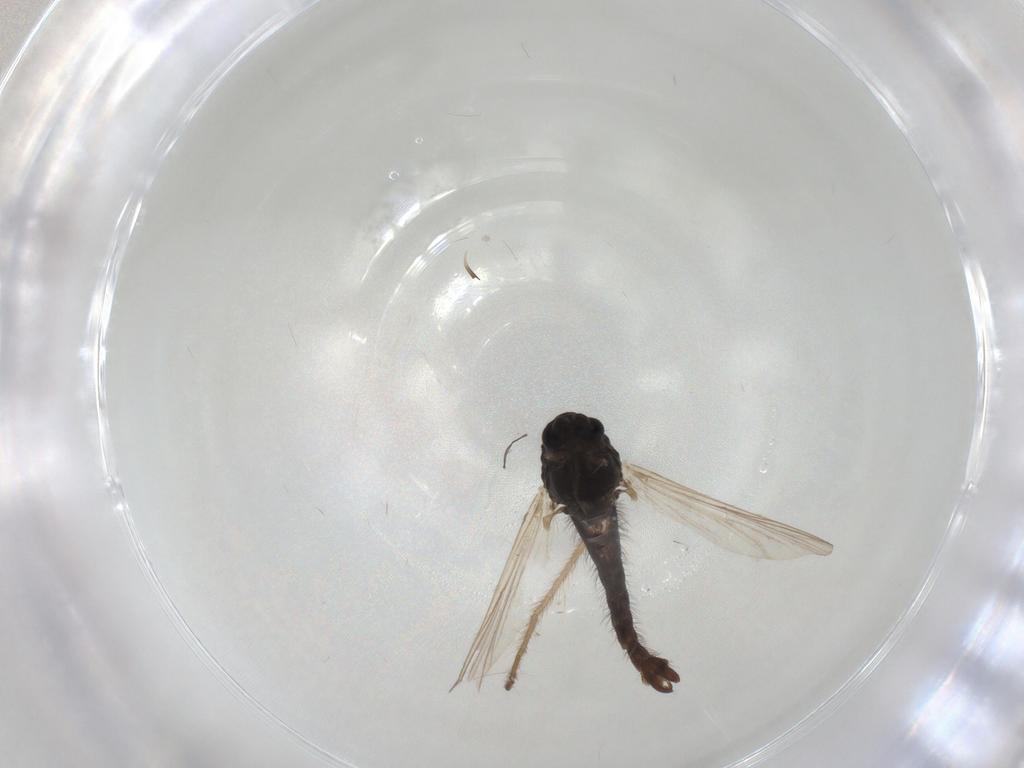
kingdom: Animalia
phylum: Arthropoda
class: Insecta
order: Diptera
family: Chironomidae
